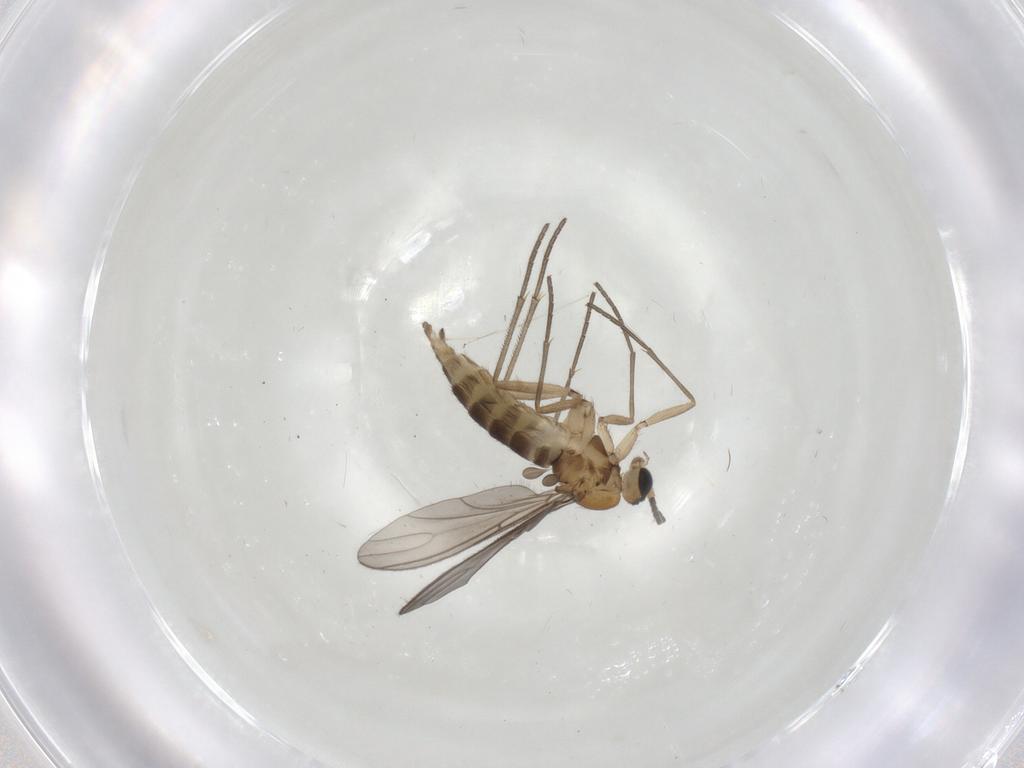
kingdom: Animalia
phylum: Arthropoda
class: Insecta
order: Diptera
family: Sciaridae
